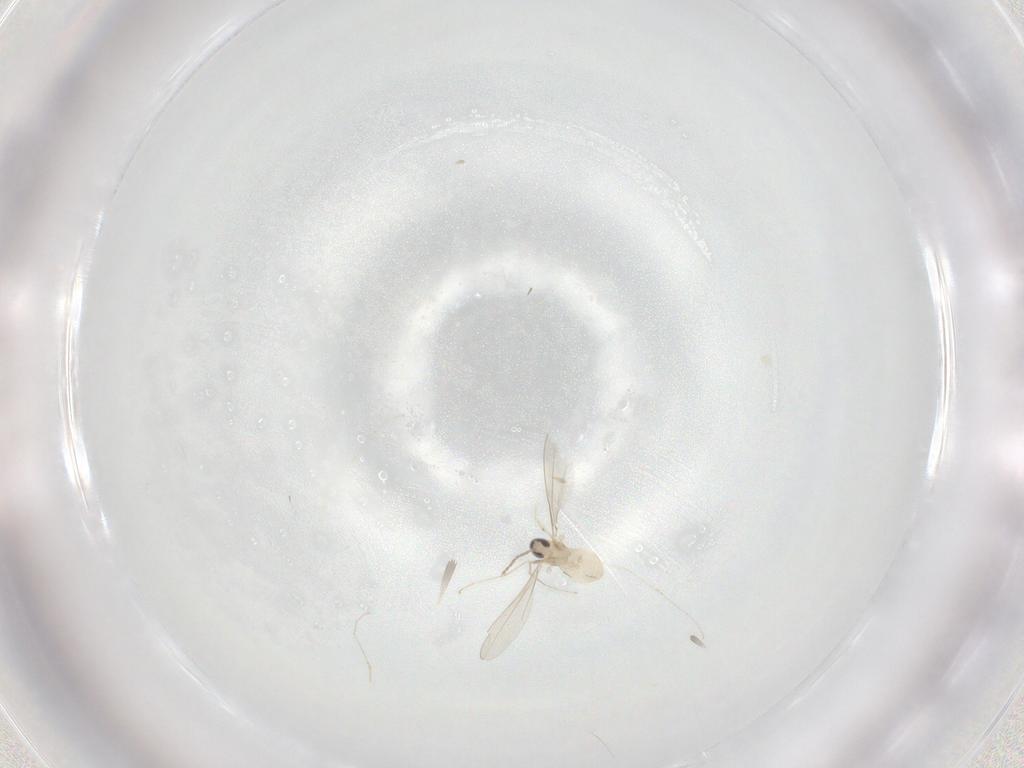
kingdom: Animalia
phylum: Arthropoda
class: Insecta
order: Diptera
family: Cecidomyiidae
